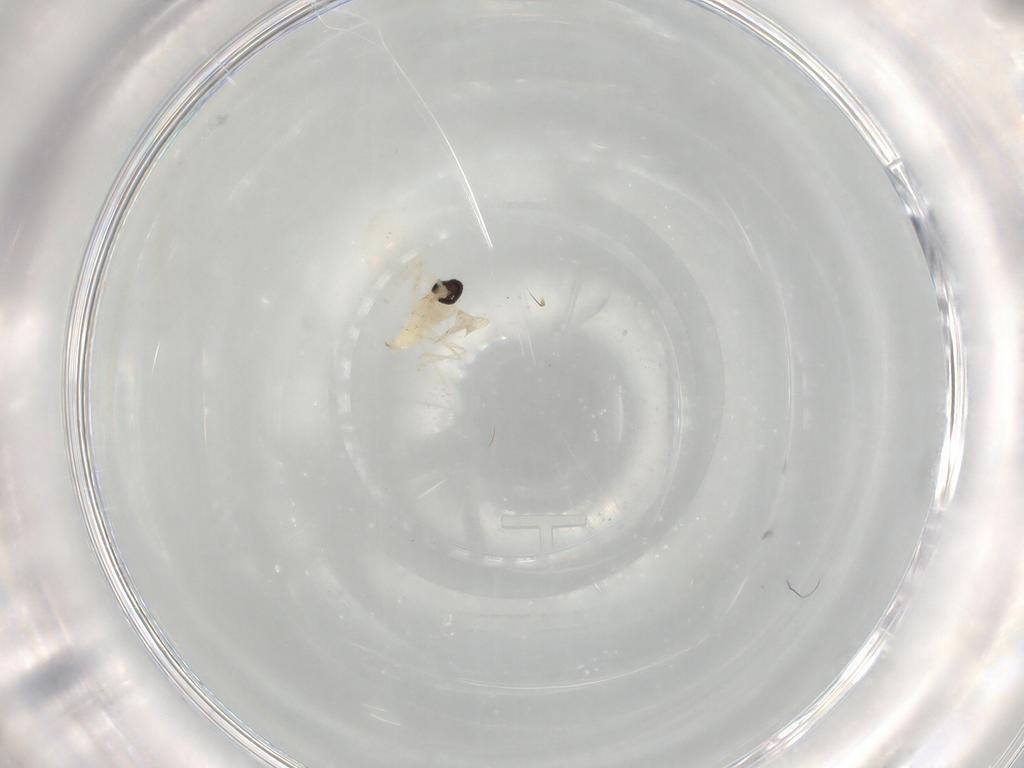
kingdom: Animalia
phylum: Arthropoda
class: Insecta
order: Diptera
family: Cecidomyiidae
